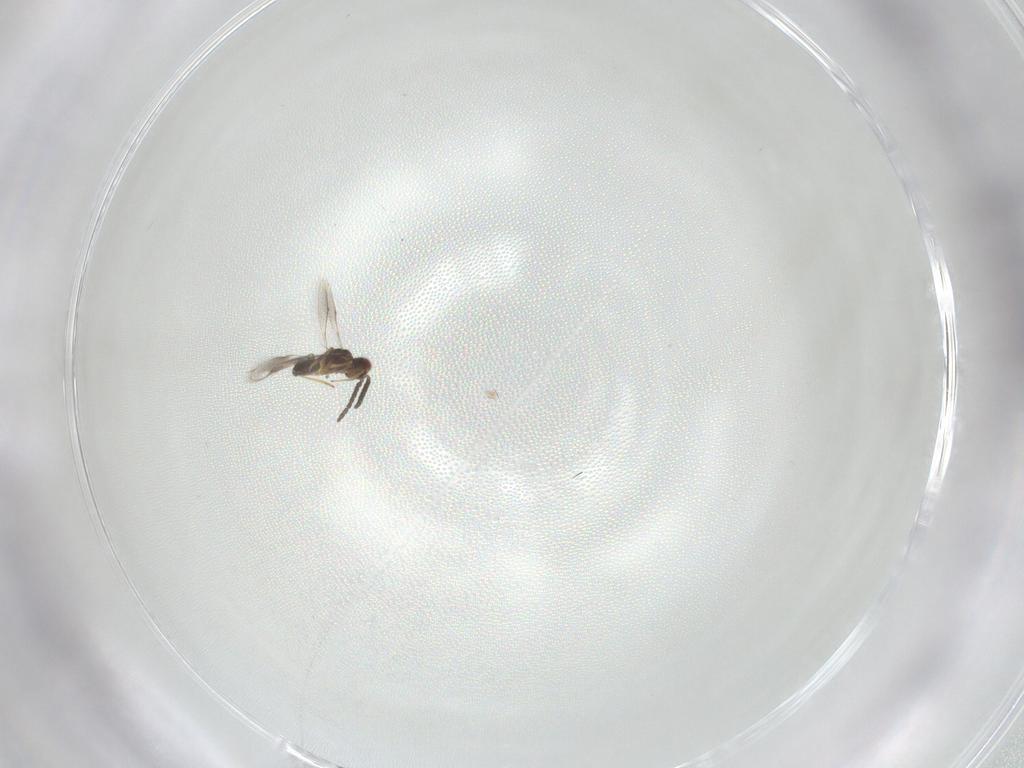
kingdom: Animalia
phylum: Arthropoda
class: Insecta
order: Hymenoptera
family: Pteromalidae
